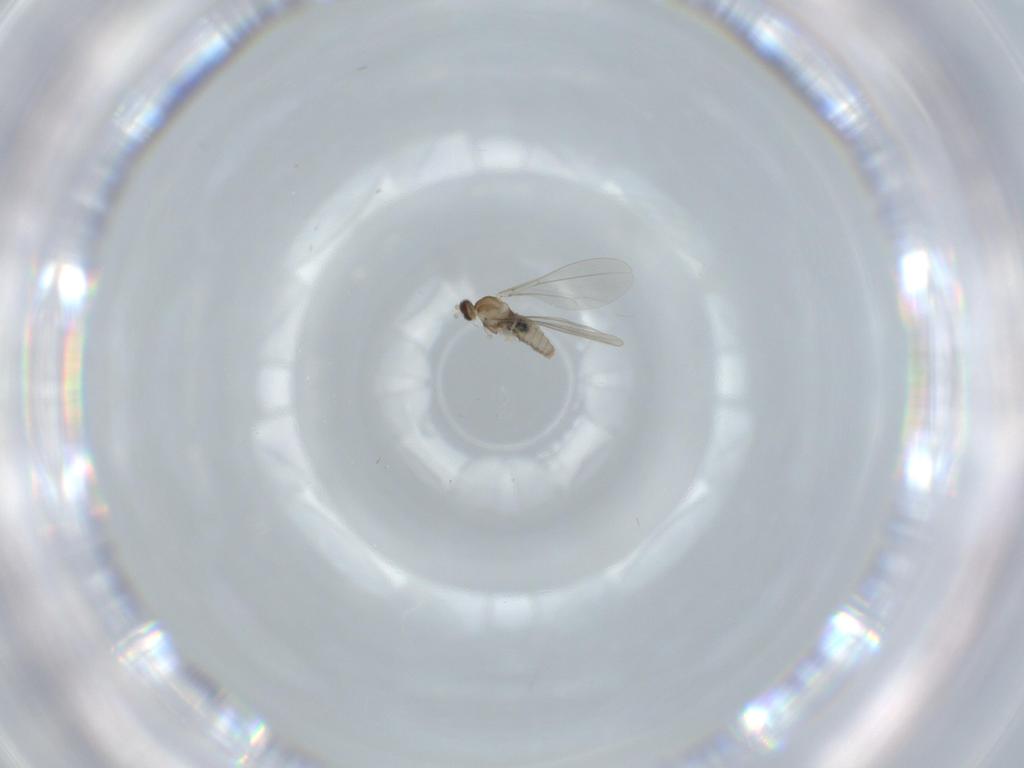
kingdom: Animalia
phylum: Arthropoda
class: Insecta
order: Diptera
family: Cecidomyiidae
